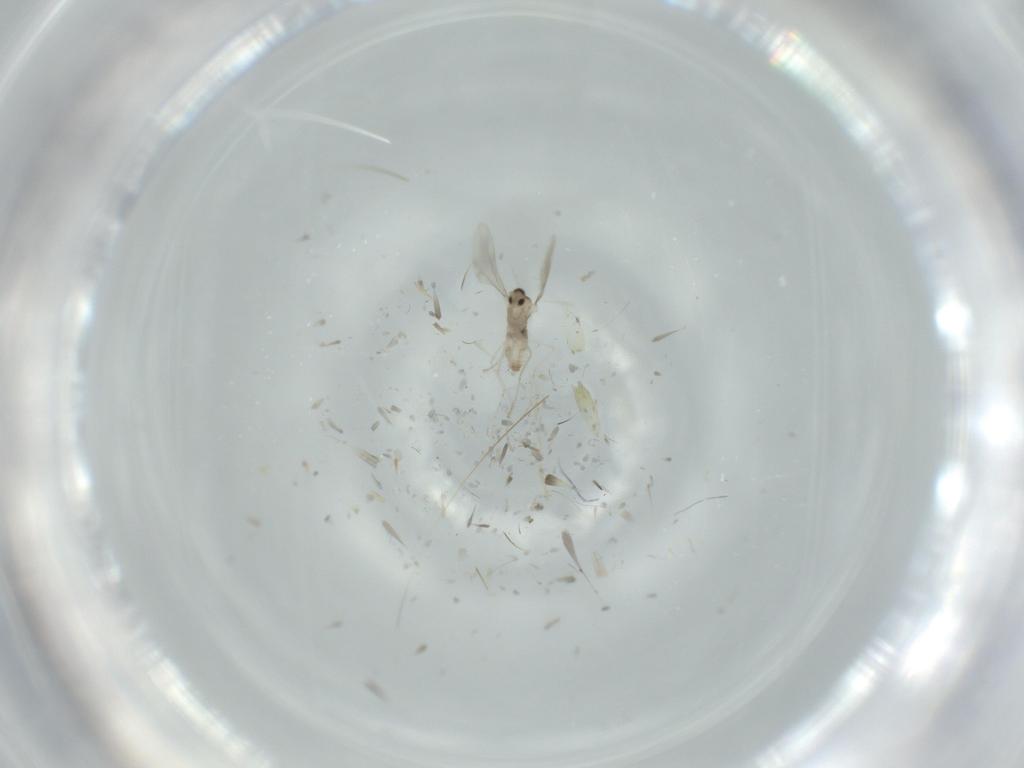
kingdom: Animalia
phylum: Arthropoda
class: Insecta
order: Diptera
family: Cecidomyiidae
